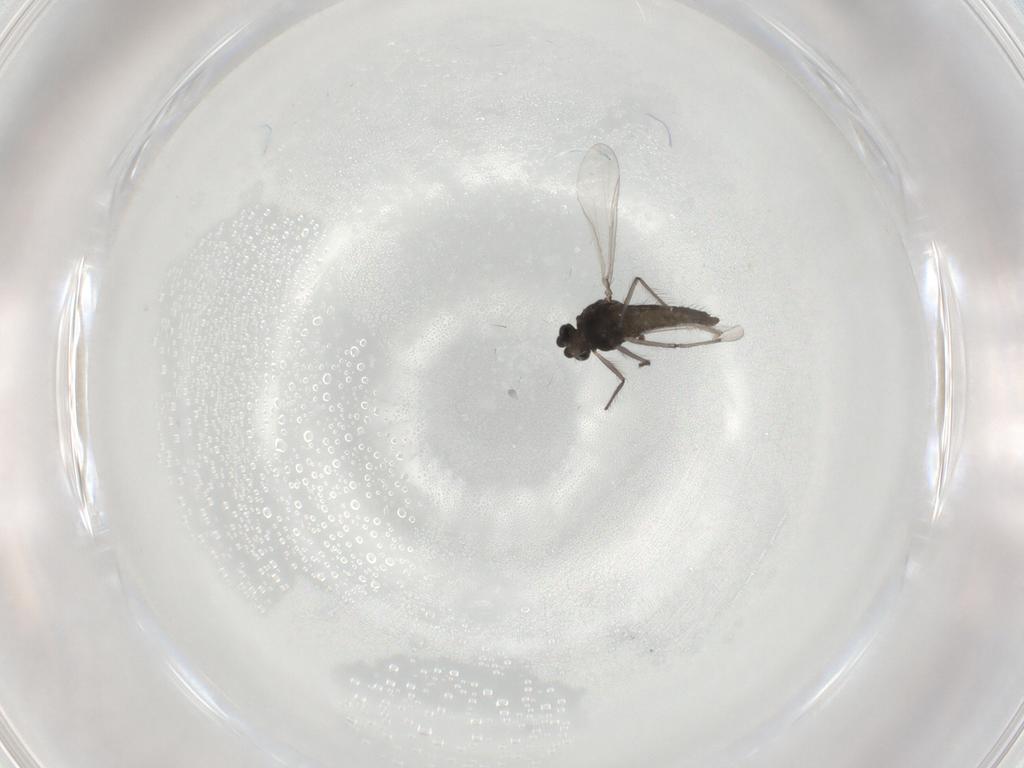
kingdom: Animalia
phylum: Arthropoda
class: Insecta
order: Diptera
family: Chironomidae
